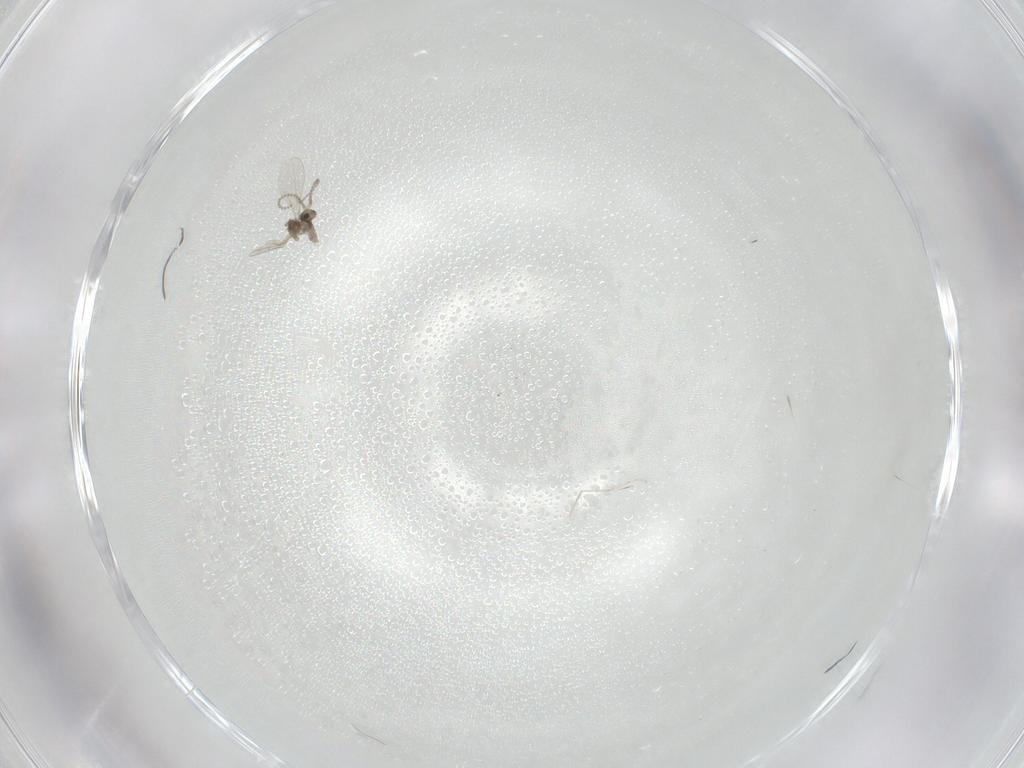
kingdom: Animalia
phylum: Arthropoda
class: Insecta
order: Diptera
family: Cecidomyiidae
